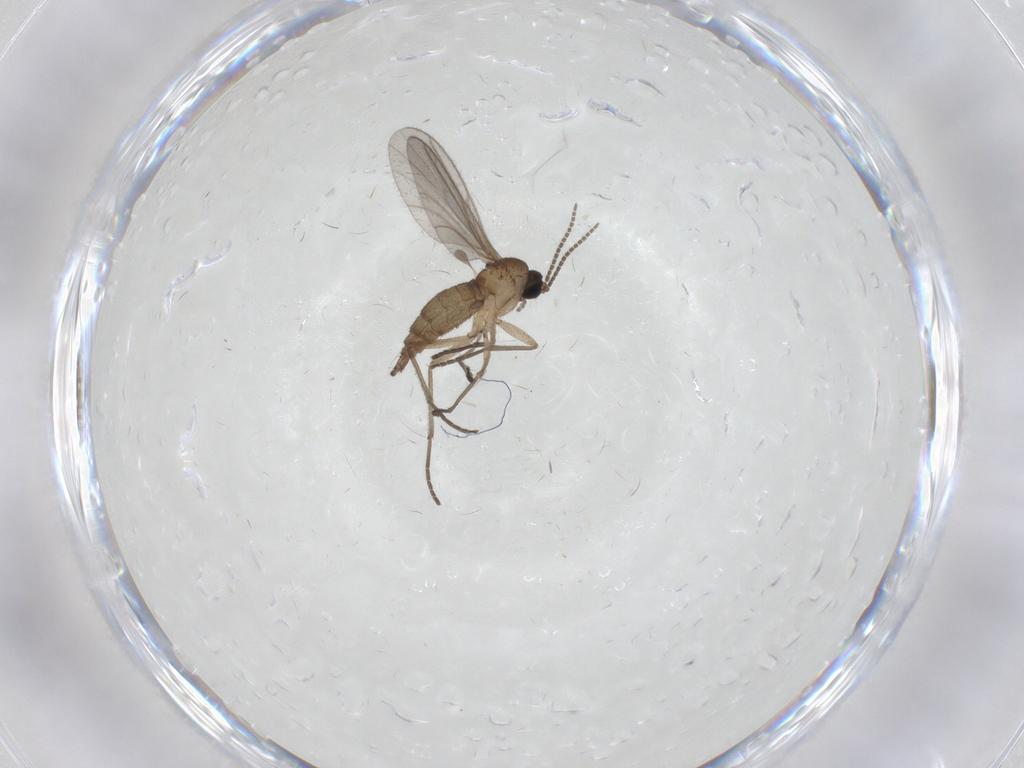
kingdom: Animalia
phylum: Arthropoda
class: Insecta
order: Diptera
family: Sciaridae
